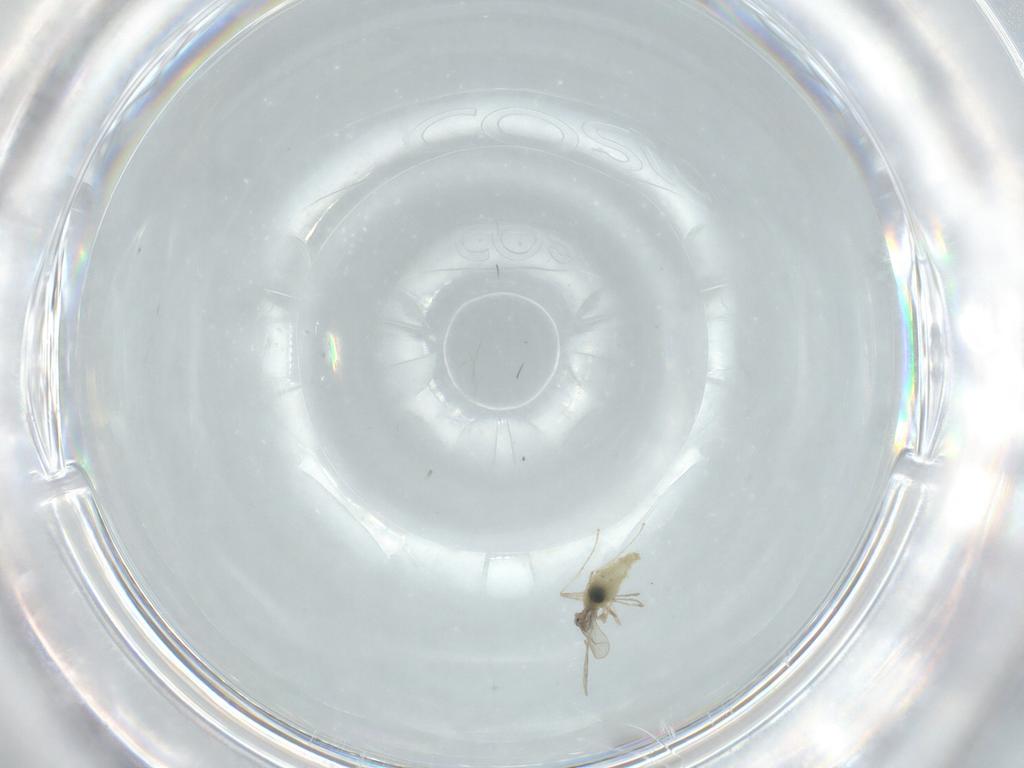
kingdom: Animalia
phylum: Arthropoda
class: Insecta
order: Diptera
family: Cecidomyiidae
